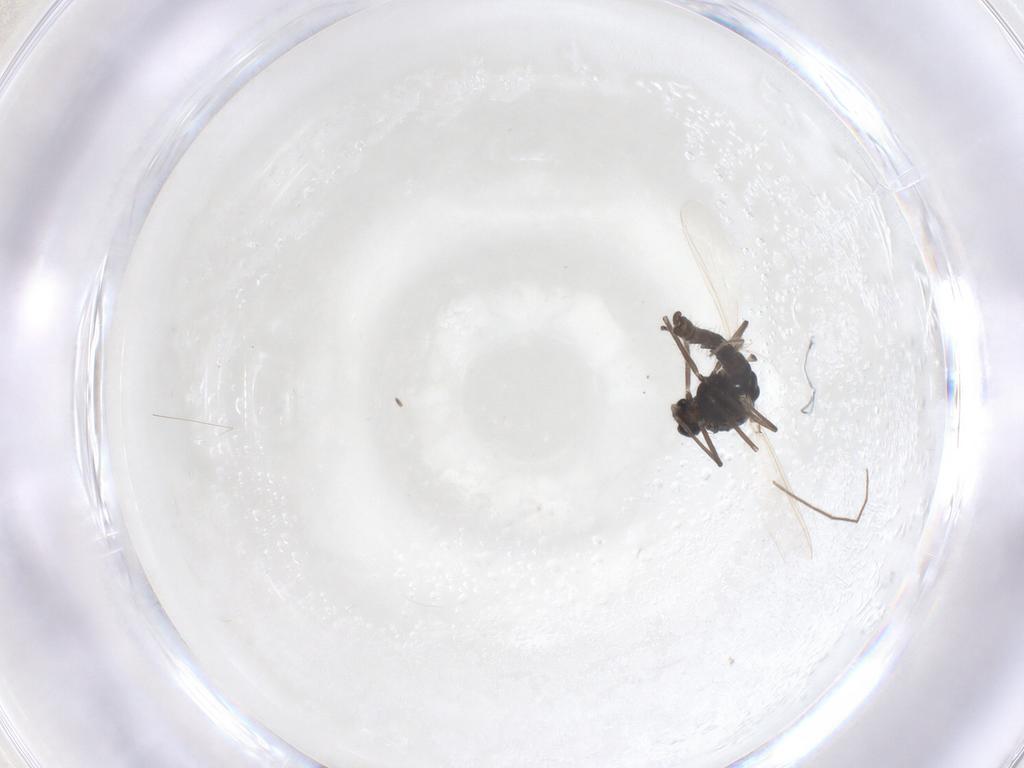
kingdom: Animalia
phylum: Arthropoda
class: Insecta
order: Diptera
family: Chironomidae
